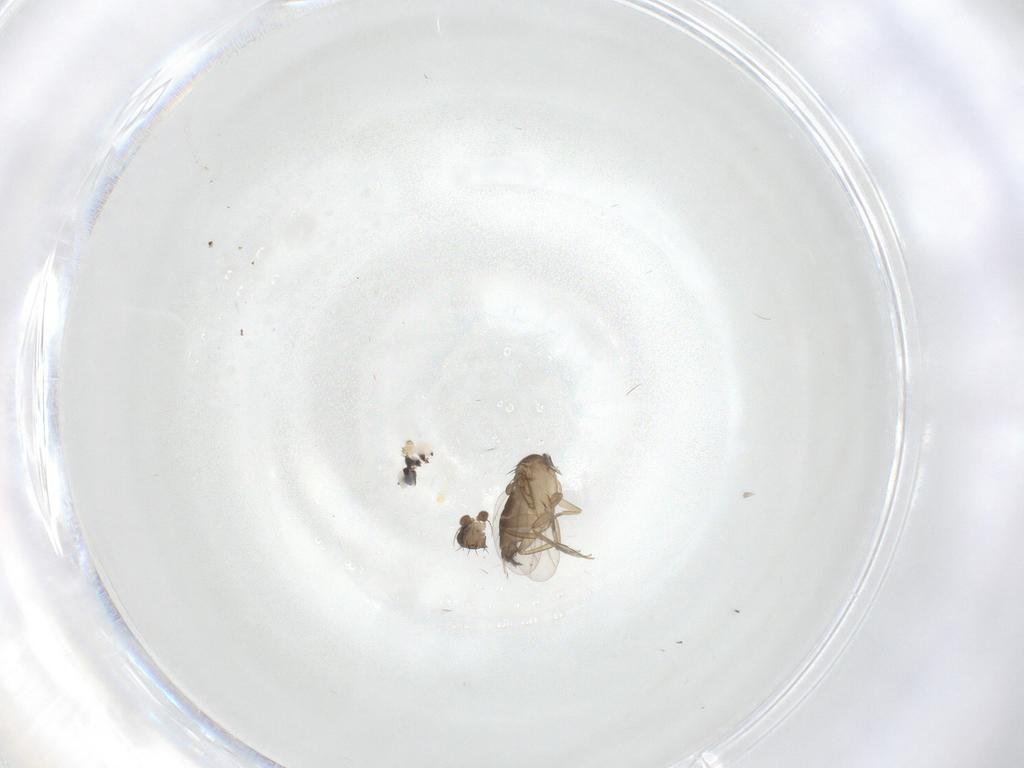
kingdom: Animalia
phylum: Arthropoda
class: Insecta
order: Diptera
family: Phoridae
